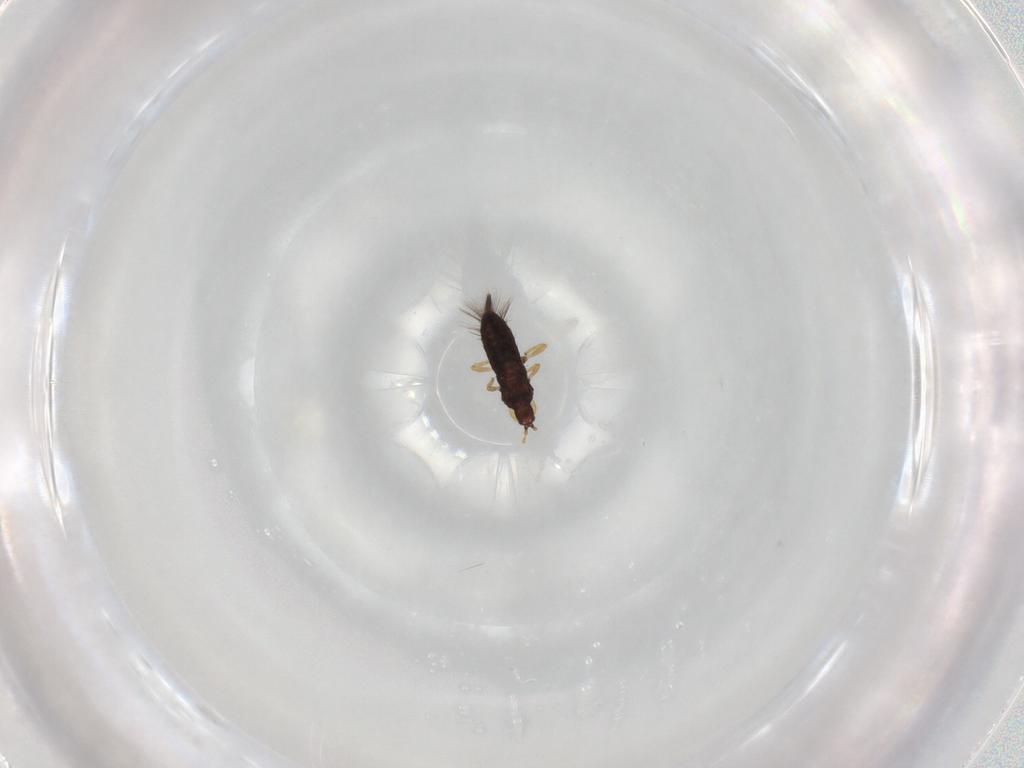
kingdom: Animalia
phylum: Arthropoda
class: Insecta
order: Thysanoptera
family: Phlaeothripidae
